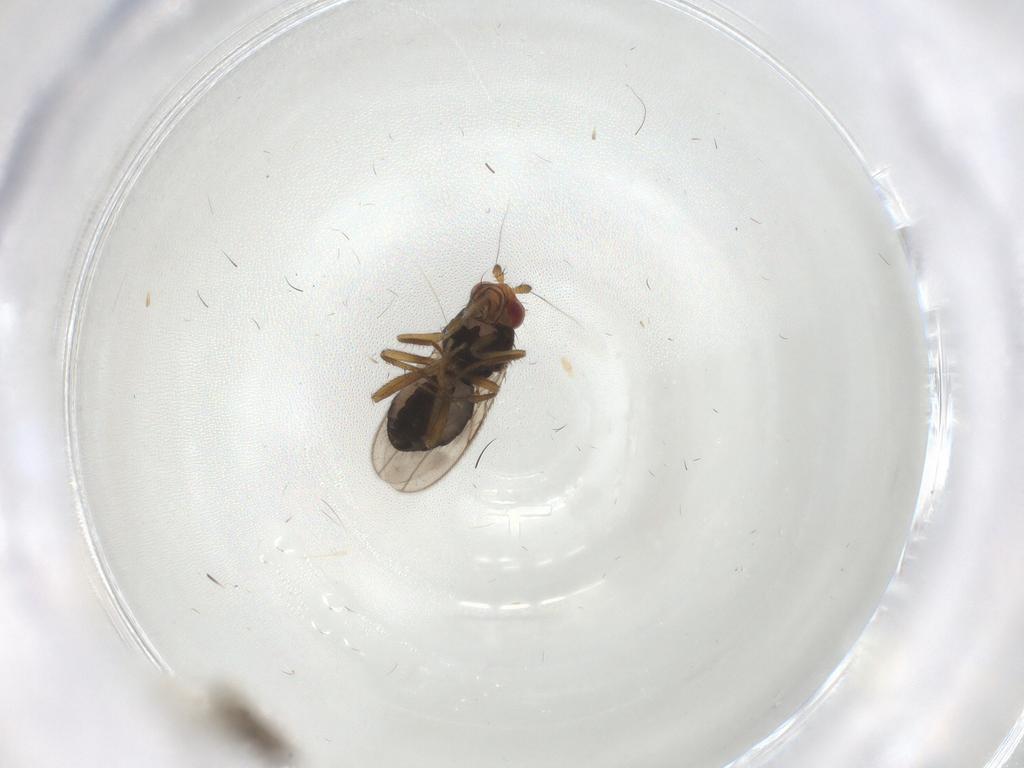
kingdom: Animalia
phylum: Arthropoda
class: Insecta
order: Diptera
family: Sphaeroceridae
